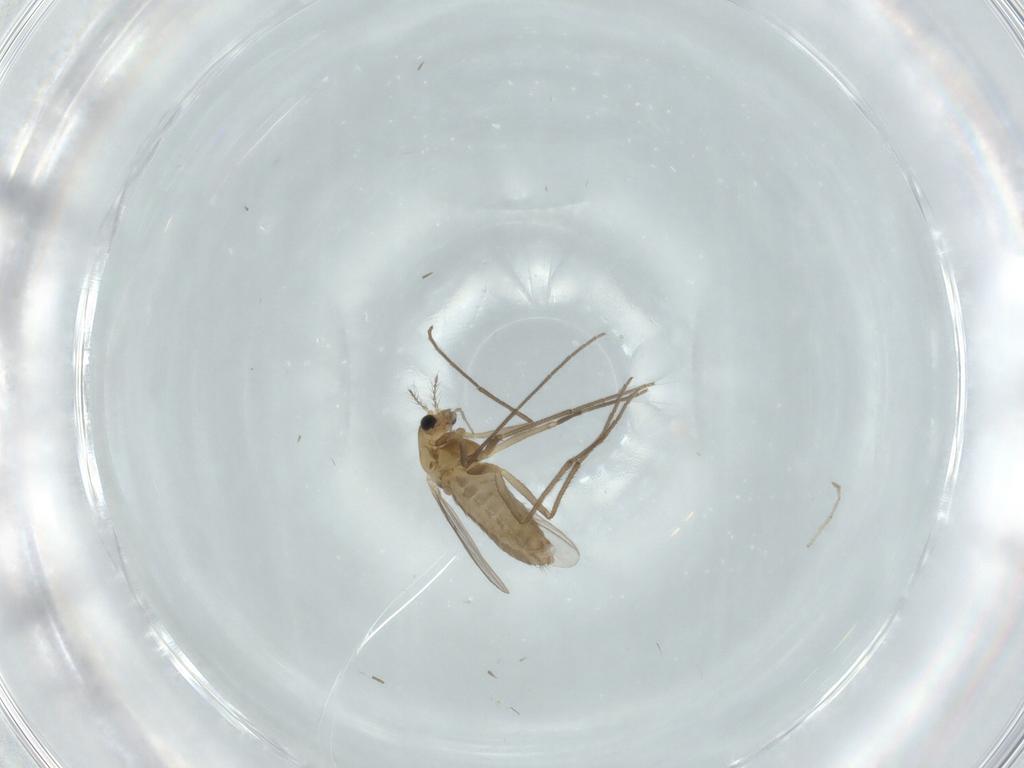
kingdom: Animalia
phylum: Arthropoda
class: Insecta
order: Diptera
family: Chironomidae
